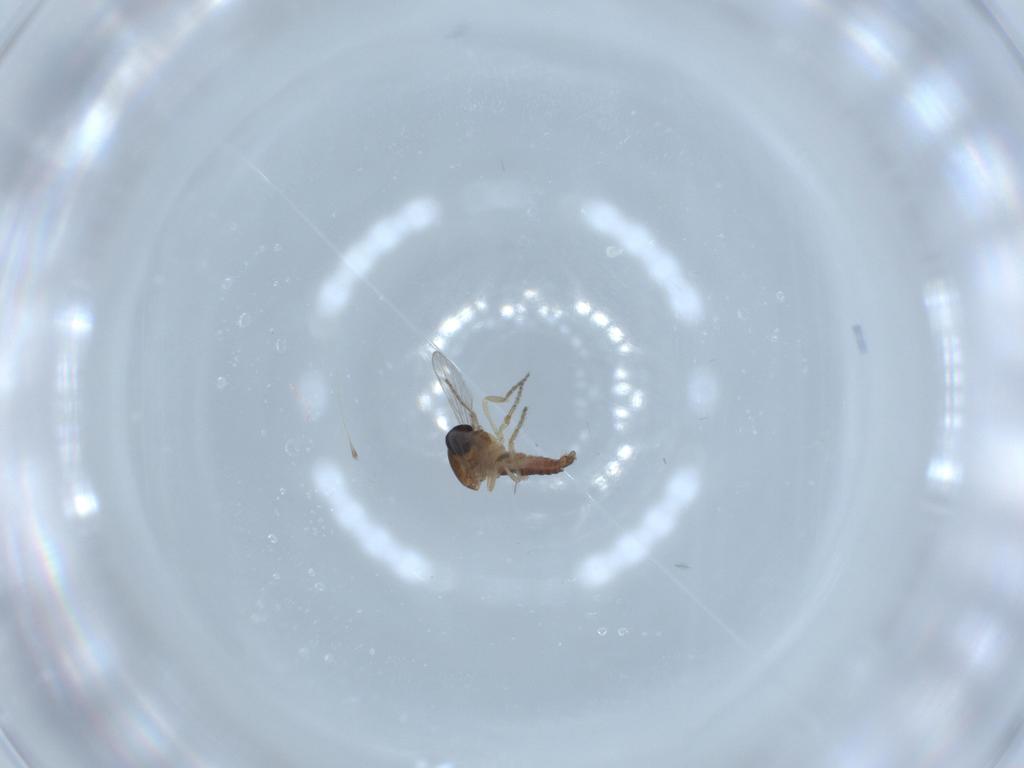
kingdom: Animalia
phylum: Arthropoda
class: Insecta
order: Diptera
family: Ceratopogonidae
